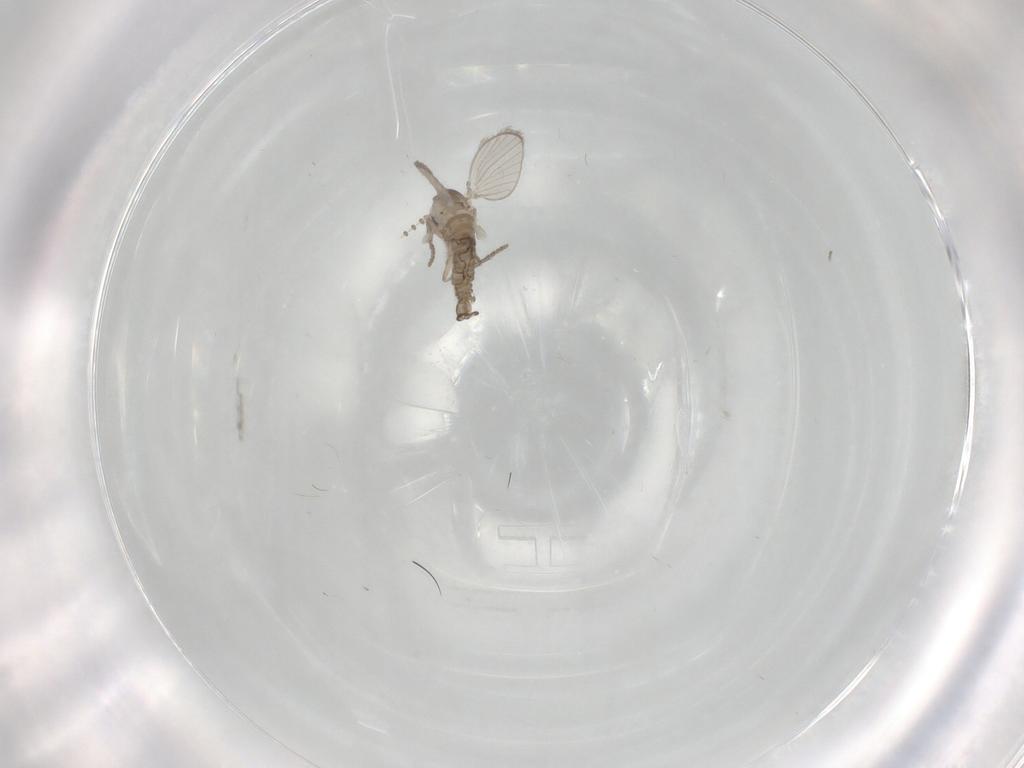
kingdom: Animalia
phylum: Arthropoda
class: Insecta
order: Diptera
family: Psychodidae
